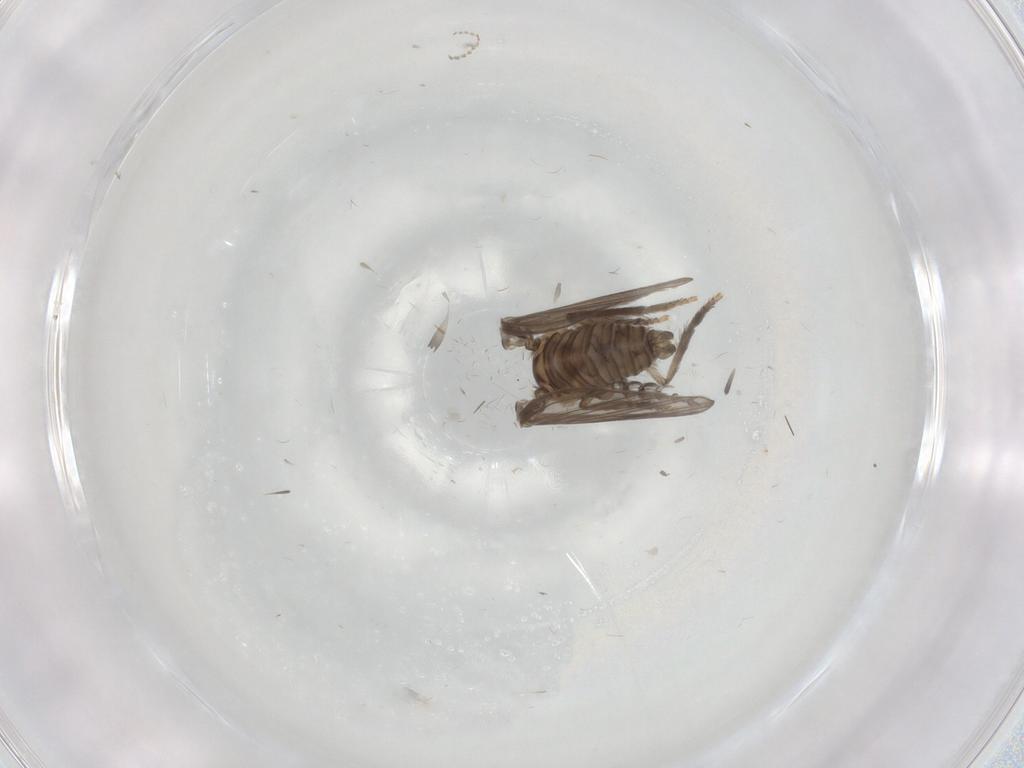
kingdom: Animalia
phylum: Arthropoda
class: Insecta
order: Diptera
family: Psychodidae
